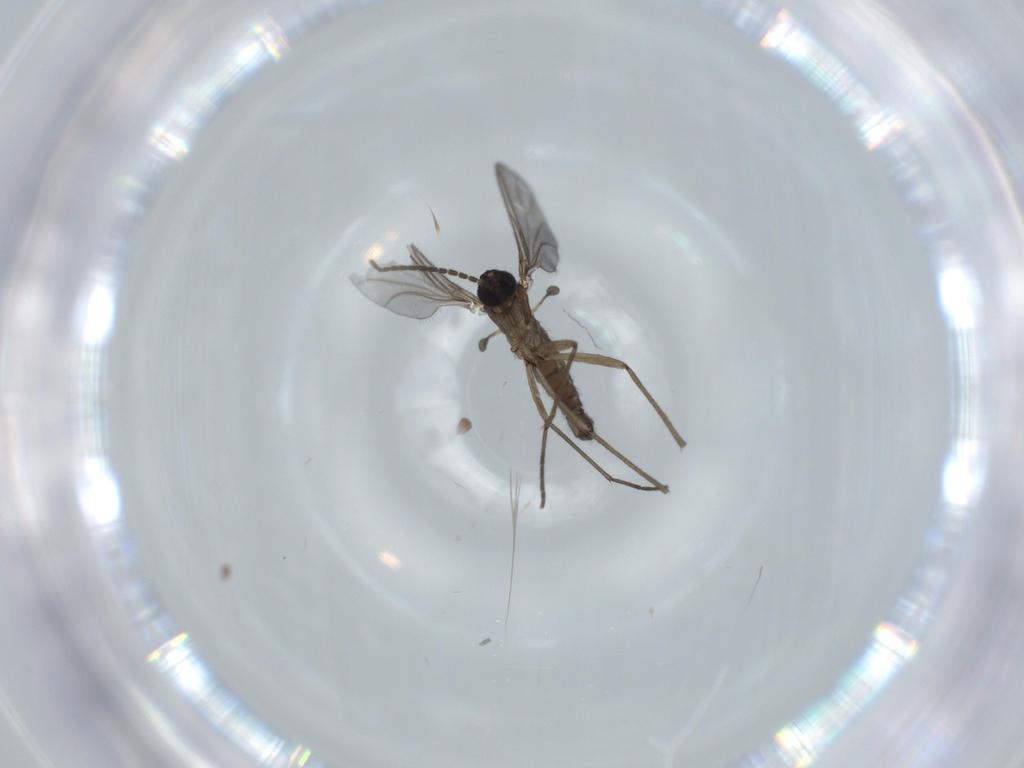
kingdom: Animalia
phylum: Arthropoda
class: Insecta
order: Diptera
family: Sciaridae
